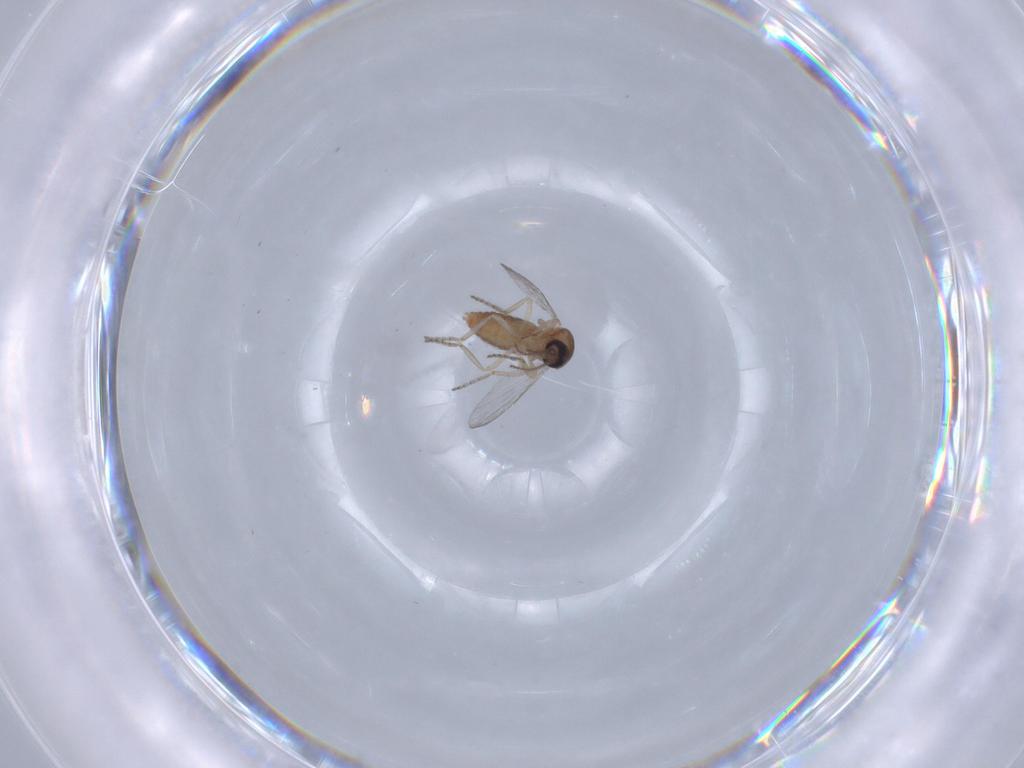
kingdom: Animalia
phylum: Arthropoda
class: Insecta
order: Diptera
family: Ceratopogonidae
